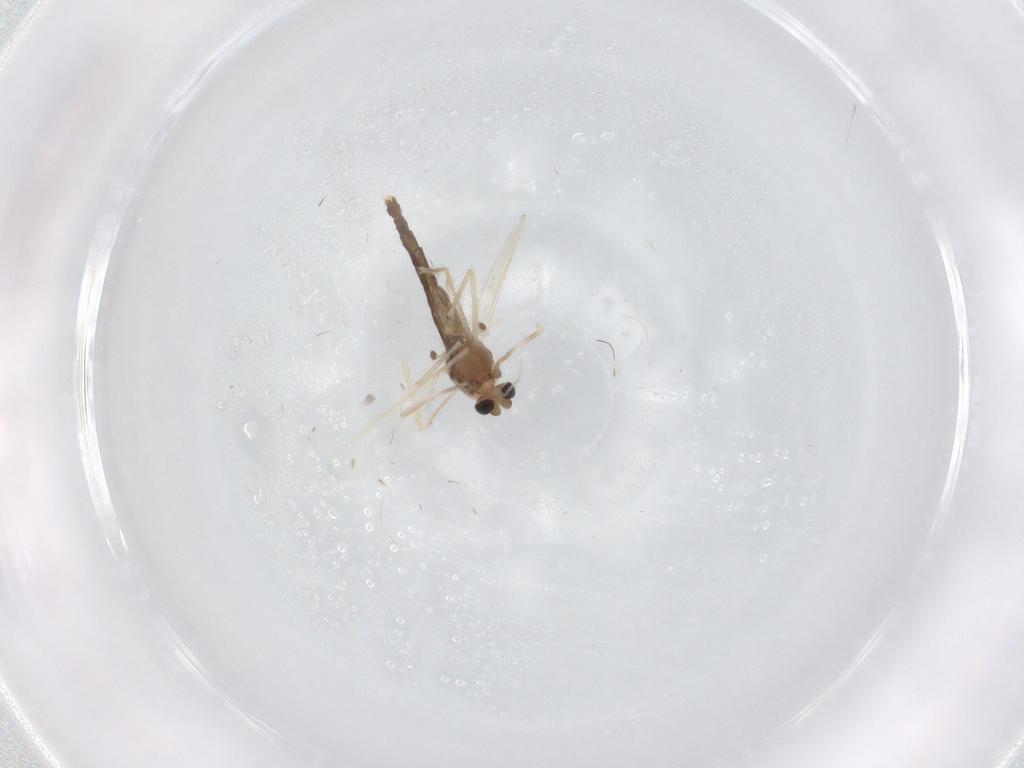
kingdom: Animalia
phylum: Arthropoda
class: Insecta
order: Diptera
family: Chironomidae
